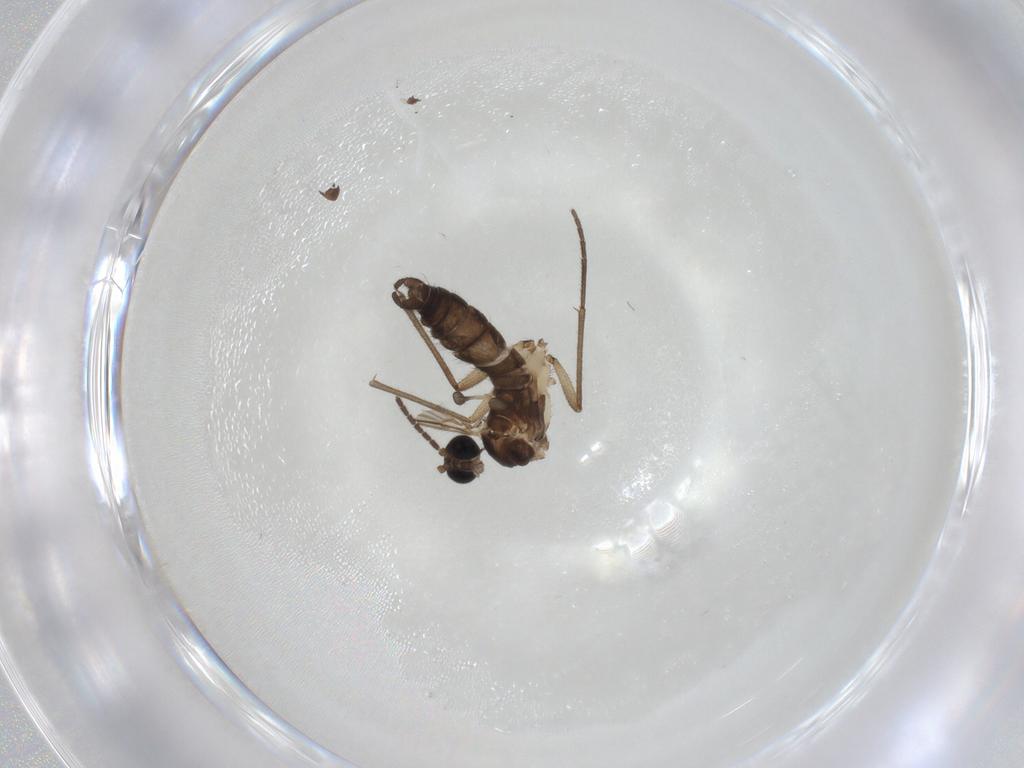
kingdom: Animalia
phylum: Arthropoda
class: Insecta
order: Diptera
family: Sciaridae
